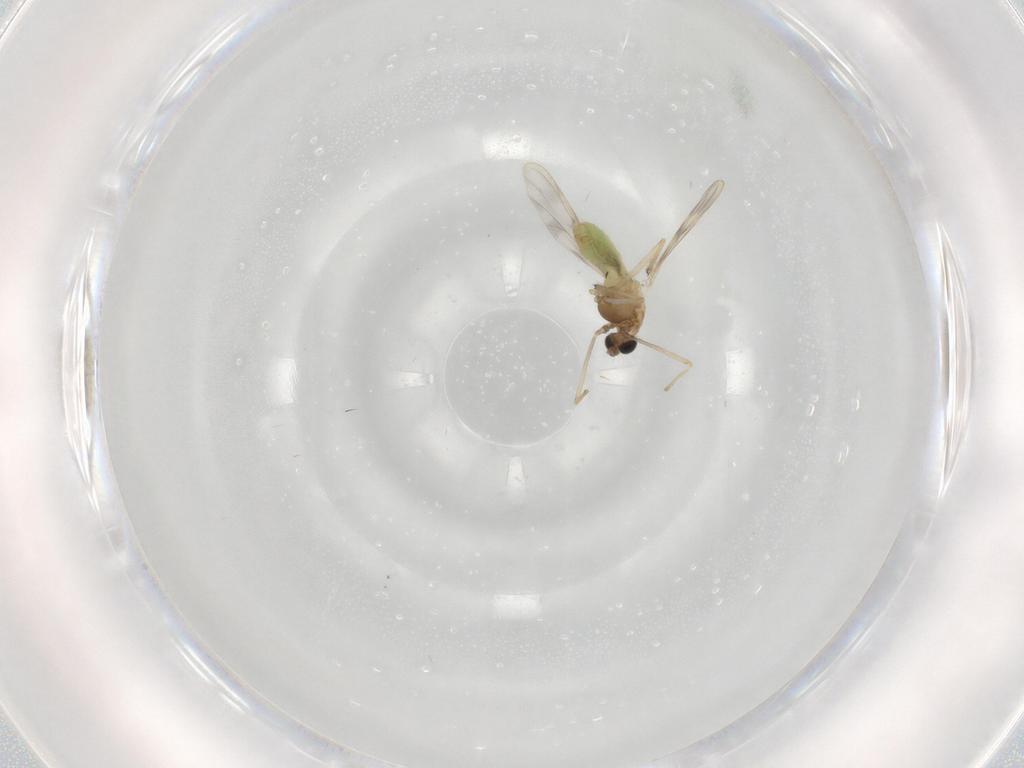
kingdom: Animalia
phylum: Arthropoda
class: Insecta
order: Diptera
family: Chironomidae
